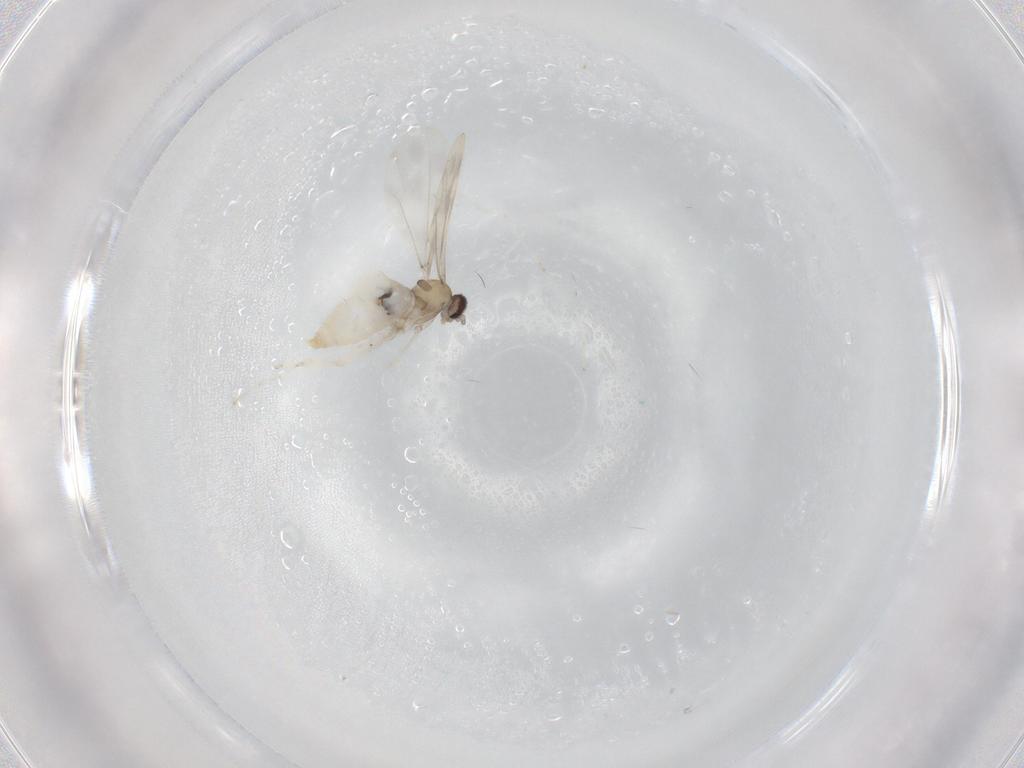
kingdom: Animalia
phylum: Arthropoda
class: Insecta
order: Diptera
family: Cecidomyiidae
